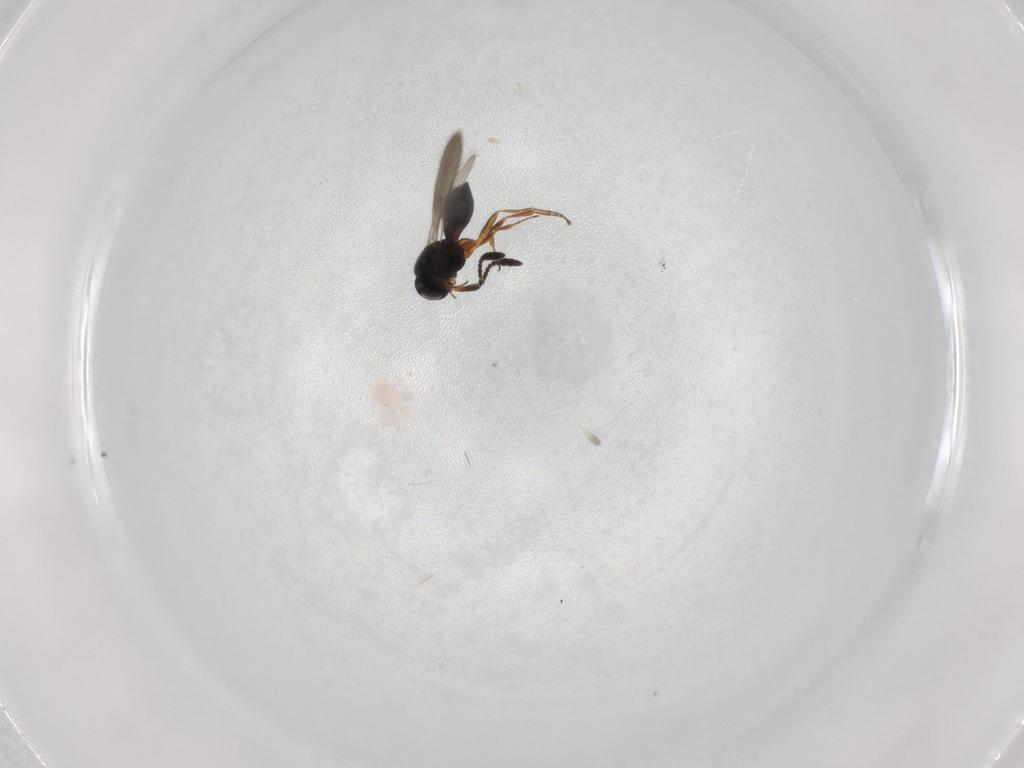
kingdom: Animalia
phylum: Arthropoda
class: Insecta
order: Hymenoptera
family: Scelionidae
